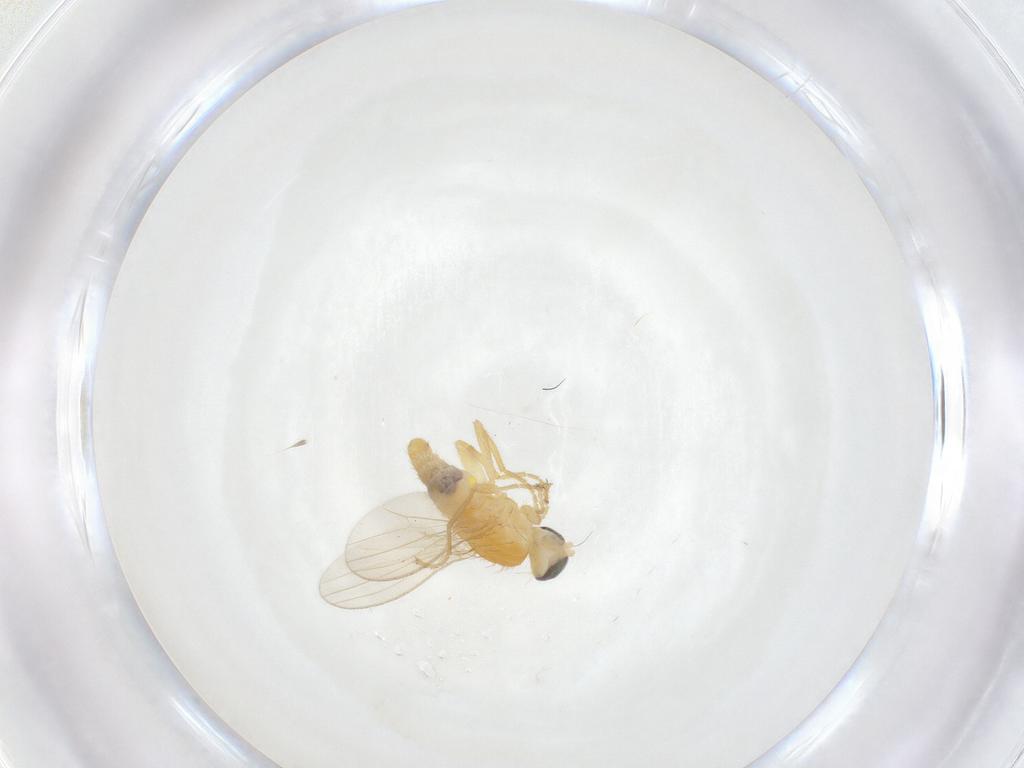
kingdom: Animalia
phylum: Arthropoda
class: Insecta
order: Diptera
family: Chyromyidae
